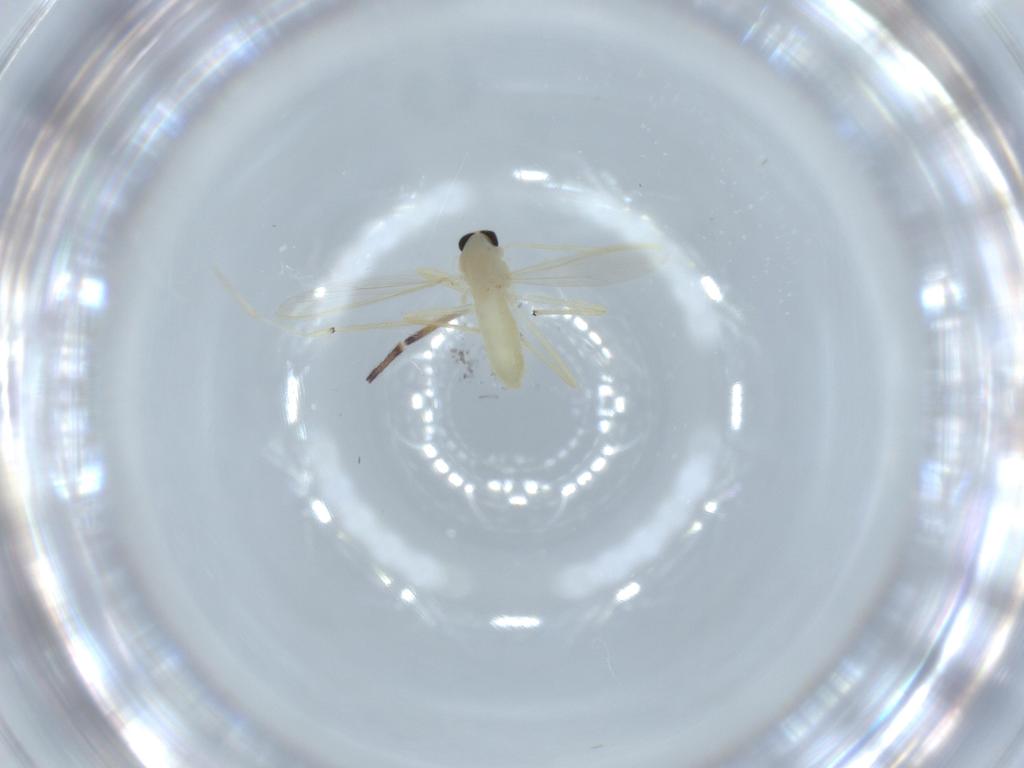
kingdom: Animalia
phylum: Arthropoda
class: Insecta
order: Diptera
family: Chironomidae
